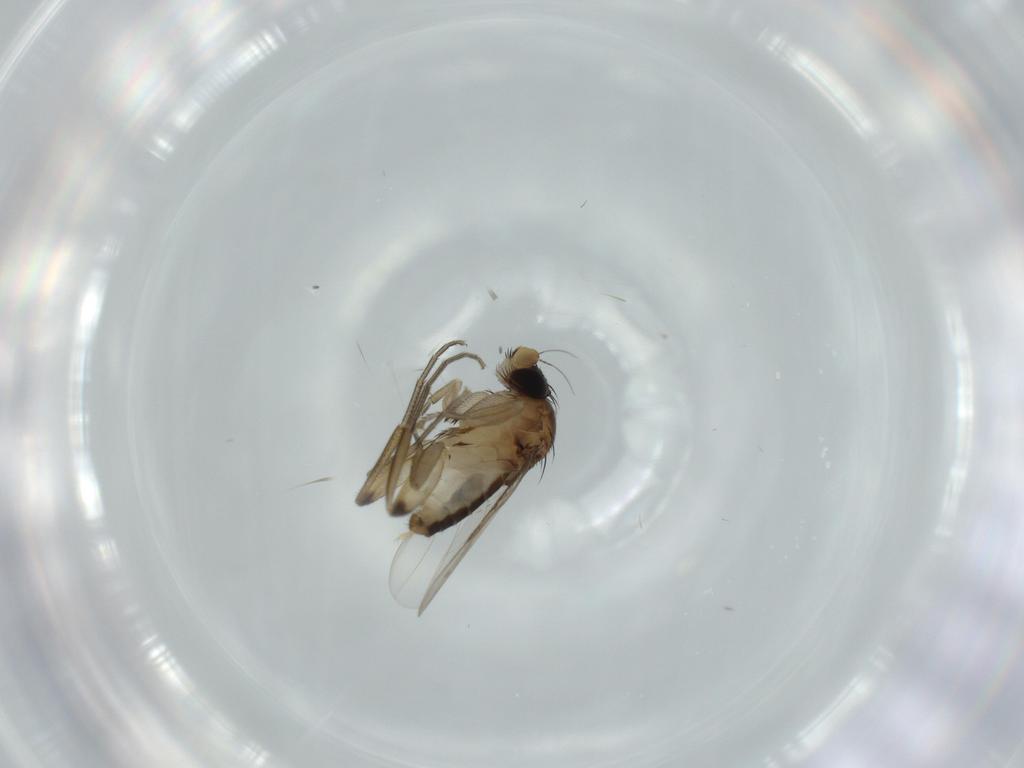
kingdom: Animalia
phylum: Arthropoda
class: Insecta
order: Diptera
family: Phoridae
